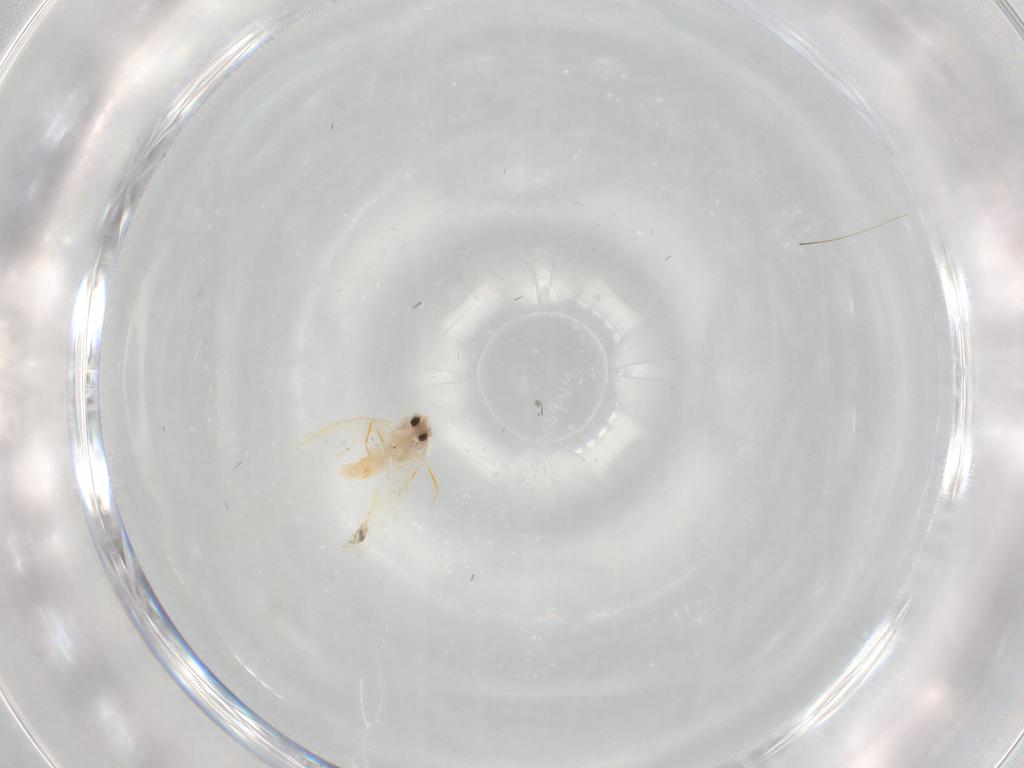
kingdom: Animalia
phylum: Arthropoda
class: Insecta
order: Hemiptera
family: Aleyrodidae
